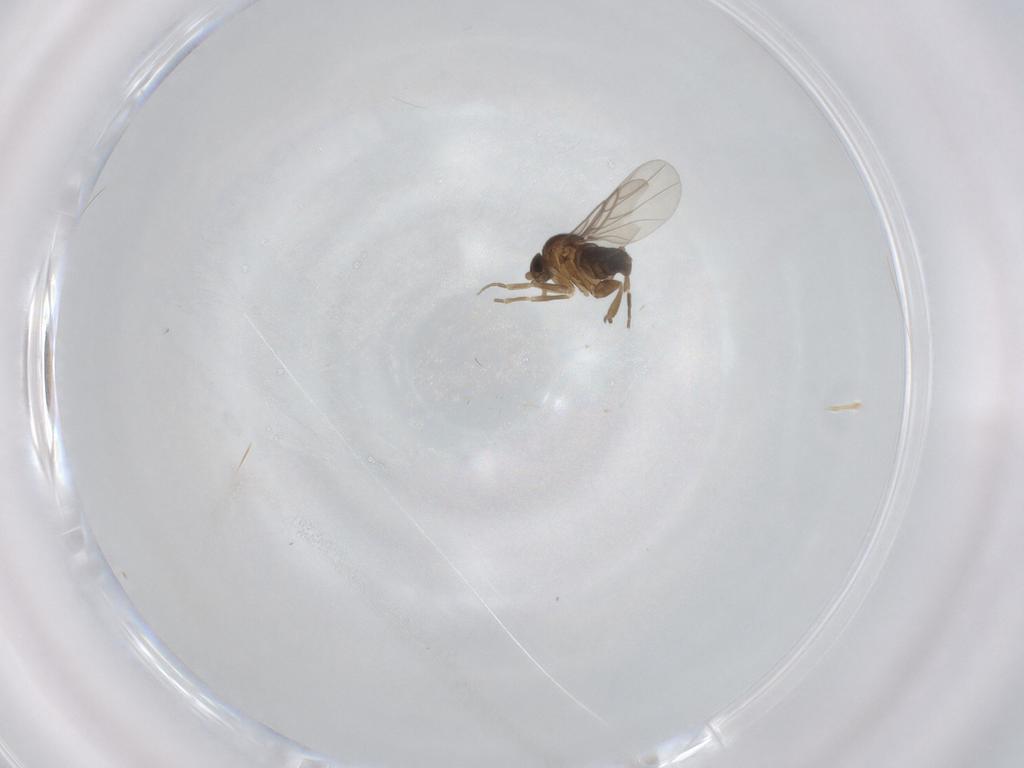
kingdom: Animalia
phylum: Arthropoda
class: Insecta
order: Diptera
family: Phoridae
